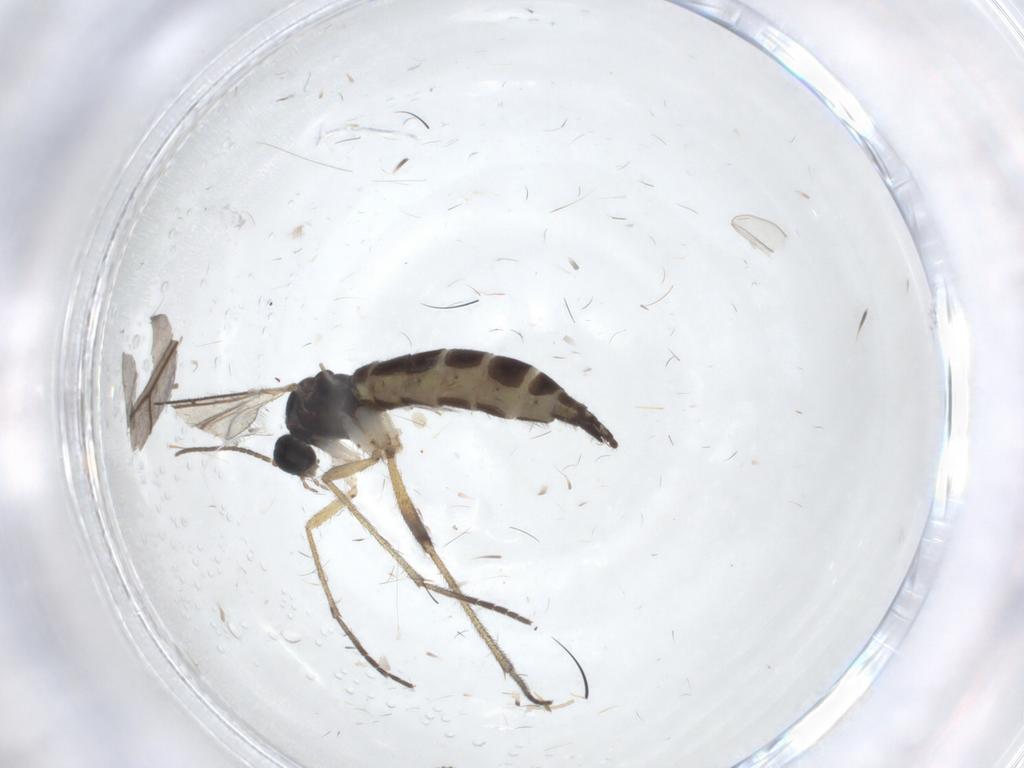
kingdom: Animalia
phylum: Arthropoda
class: Insecta
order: Diptera
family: Sciaridae
